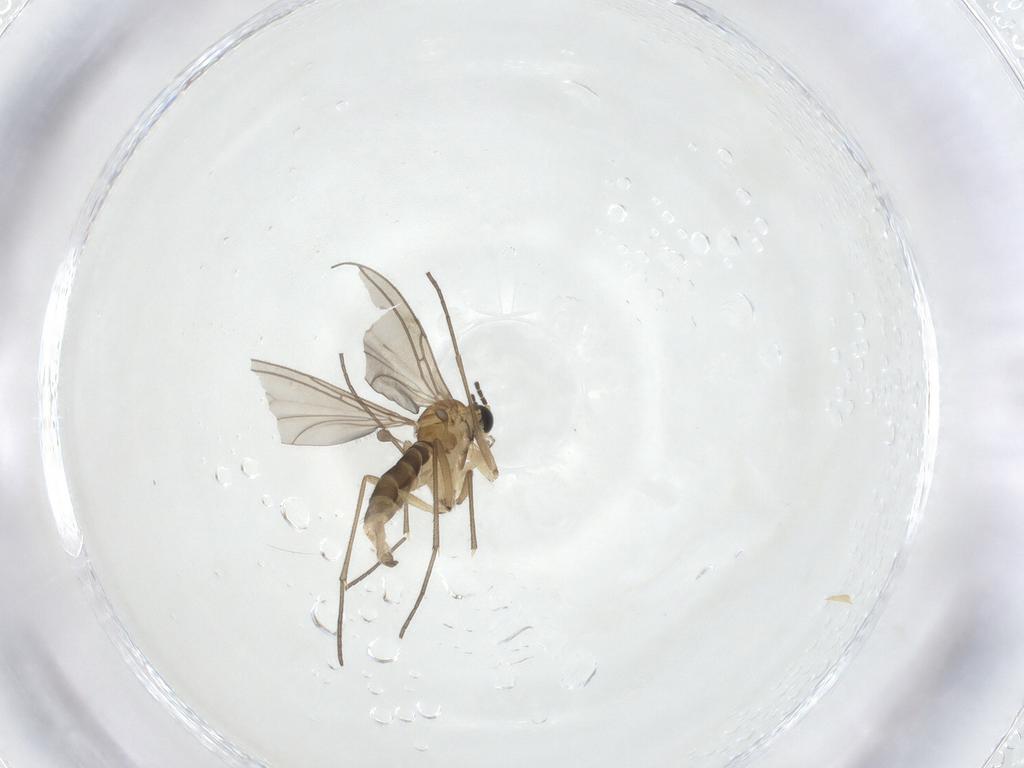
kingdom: Animalia
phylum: Arthropoda
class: Insecta
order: Diptera
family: Sciaridae
